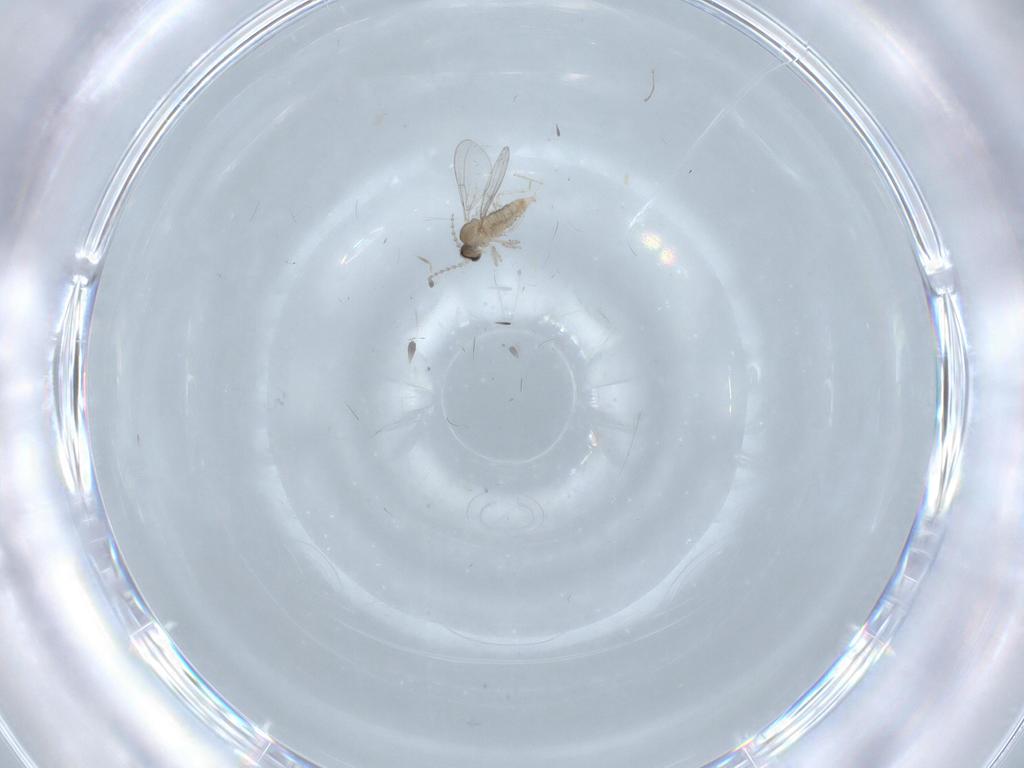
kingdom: Animalia
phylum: Arthropoda
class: Insecta
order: Diptera
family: Cecidomyiidae
